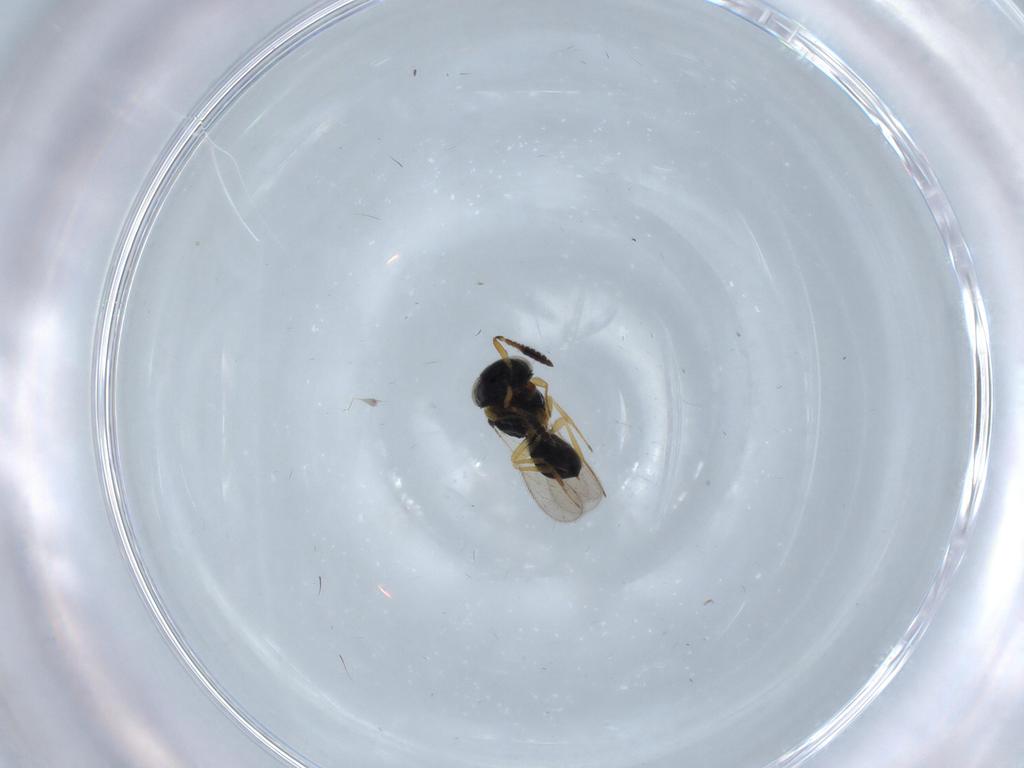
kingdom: Animalia
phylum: Arthropoda
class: Insecta
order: Hymenoptera
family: Scelionidae
